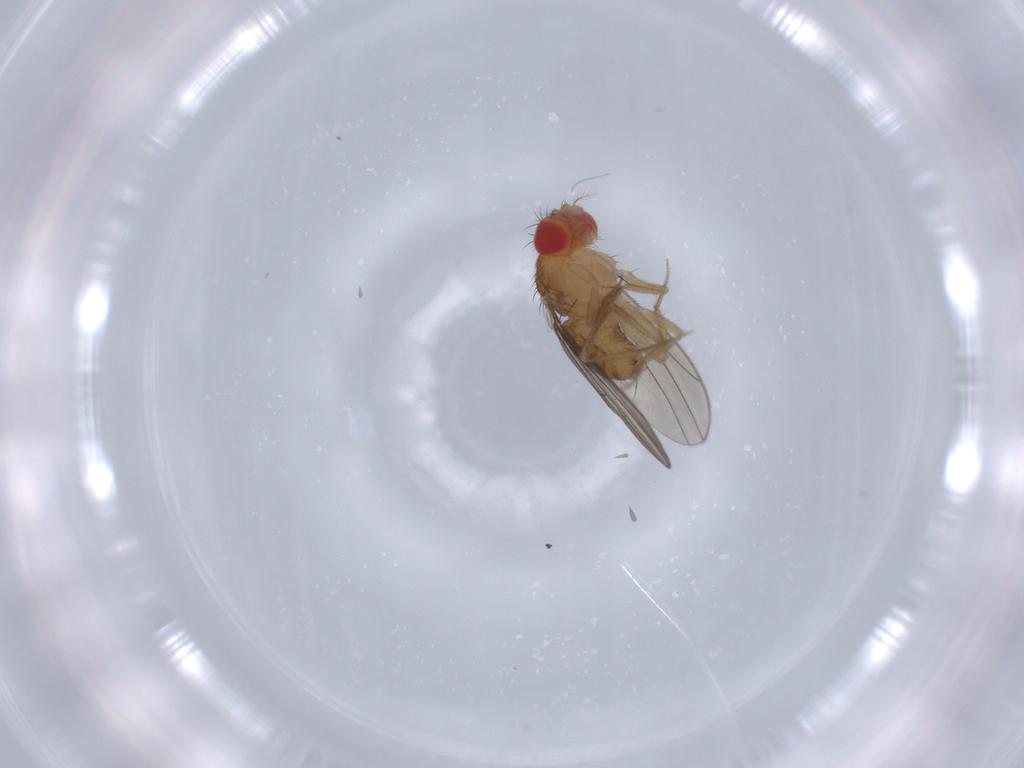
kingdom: Animalia
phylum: Arthropoda
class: Insecta
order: Diptera
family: Drosophilidae
